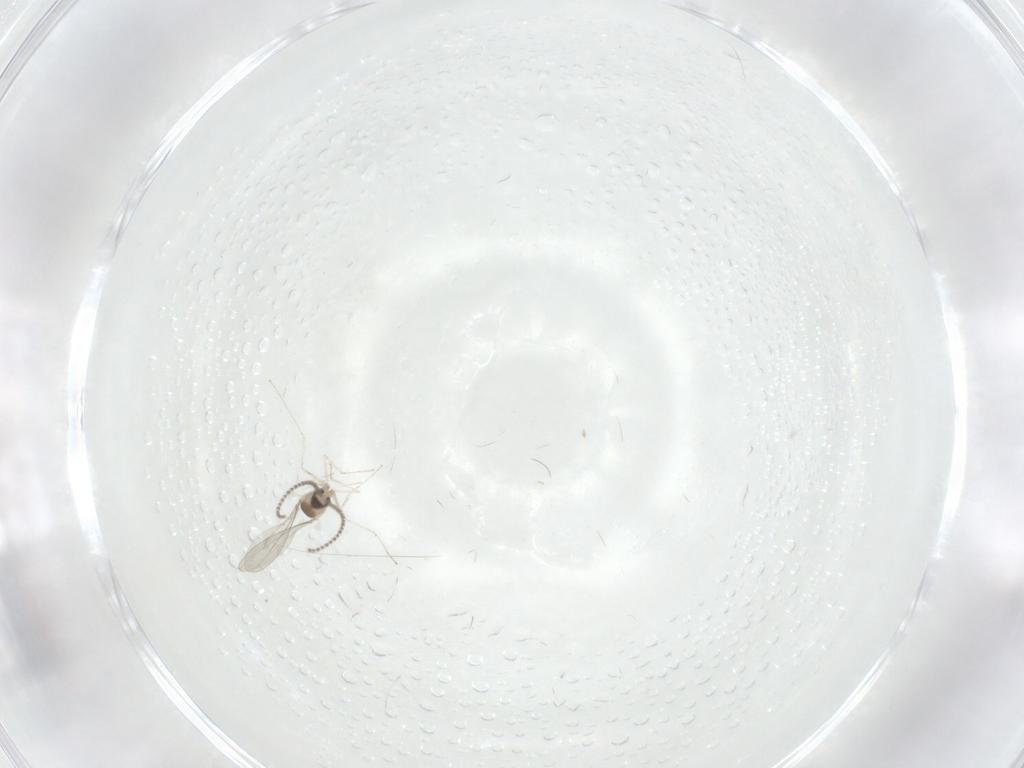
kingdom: Animalia
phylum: Arthropoda
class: Insecta
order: Diptera
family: Cecidomyiidae
